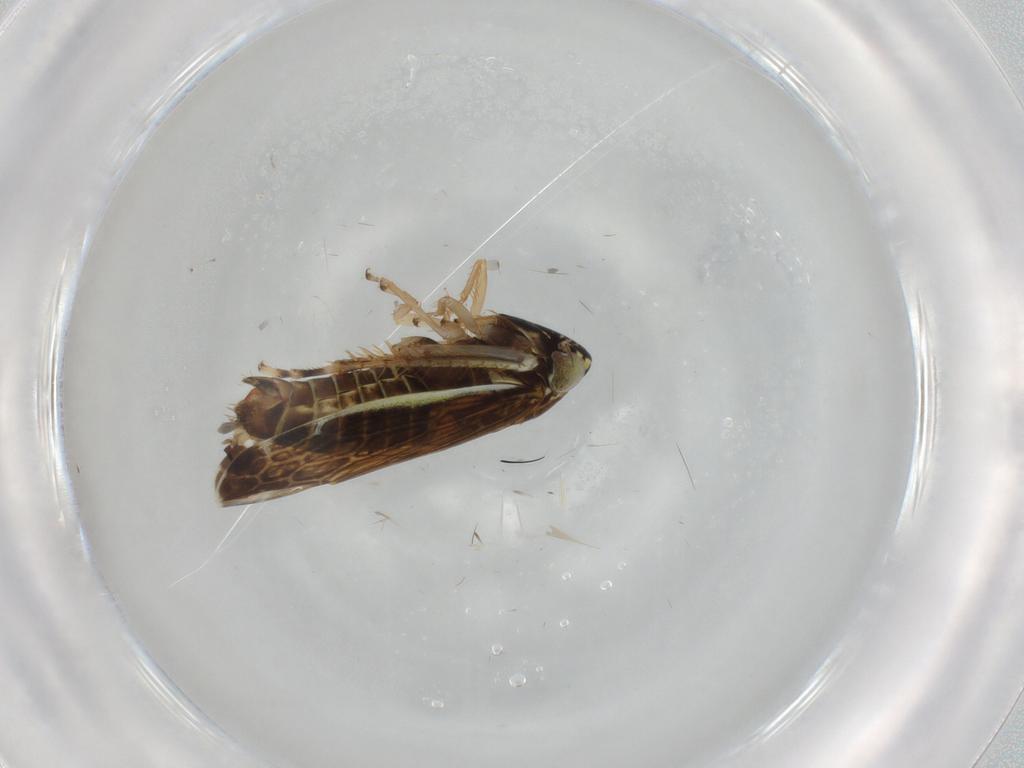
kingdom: Animalia
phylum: Arthropoda
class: Insecta
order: Hemiptera
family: Cicadellidae
